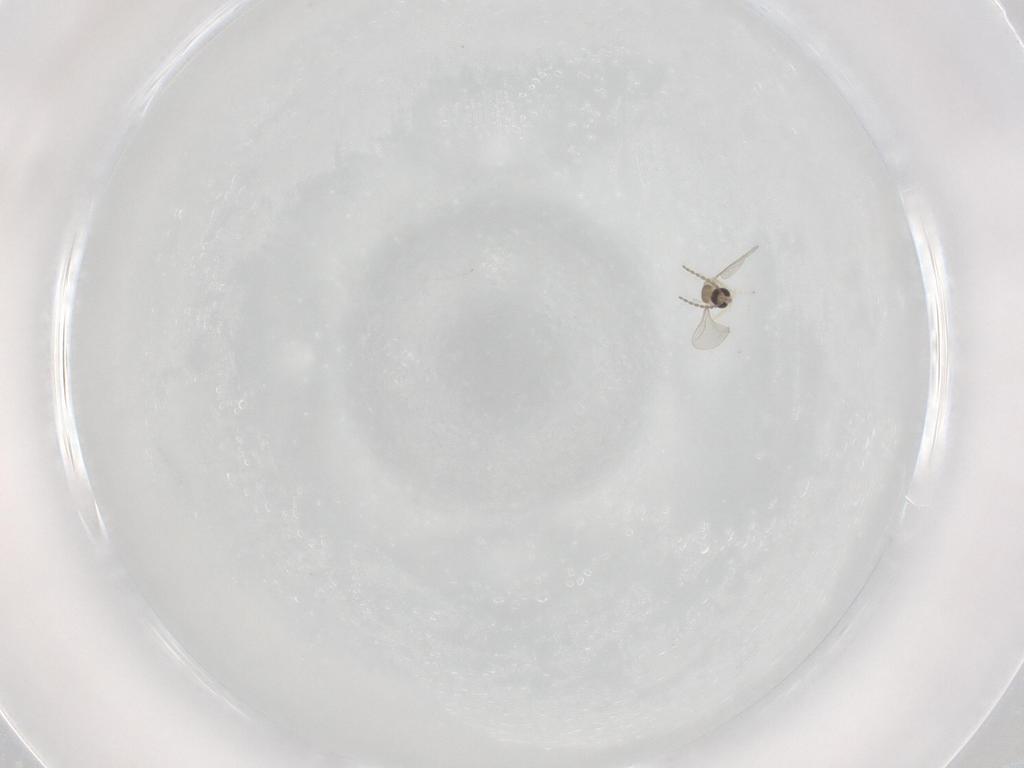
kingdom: Animalia
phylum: Arthropoda
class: Insecta
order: Diptera
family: Cecidomyiidae
